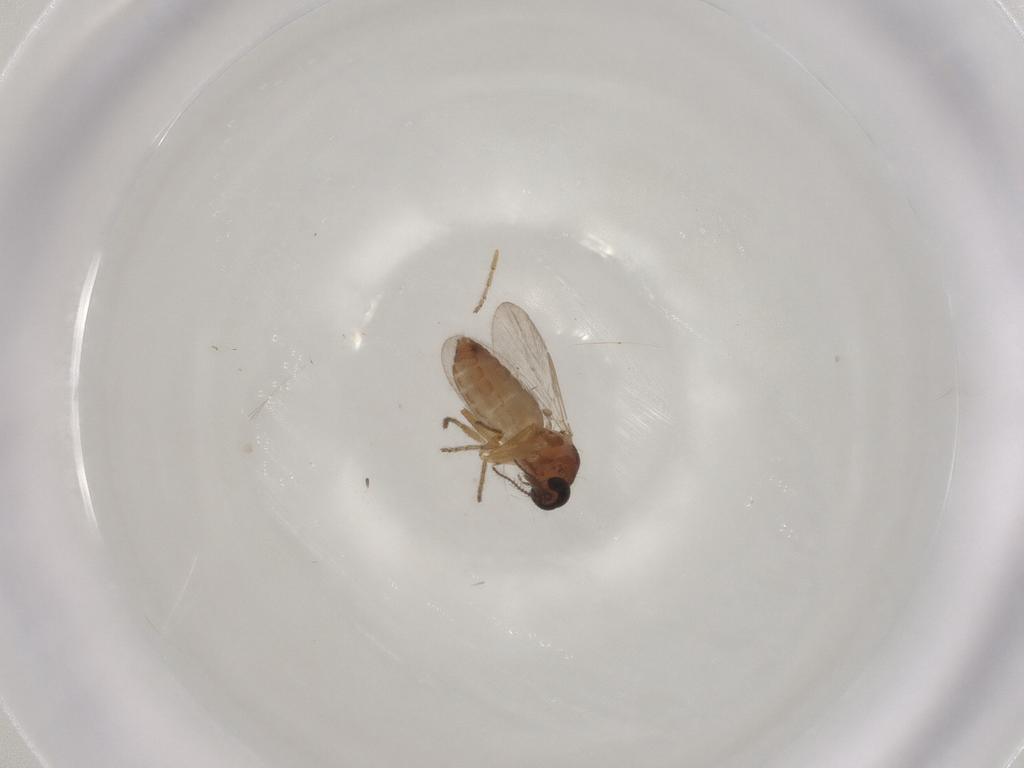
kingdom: Animalia
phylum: Arthropoda
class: Insecta
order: Diptera
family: Ceratopogonidae
